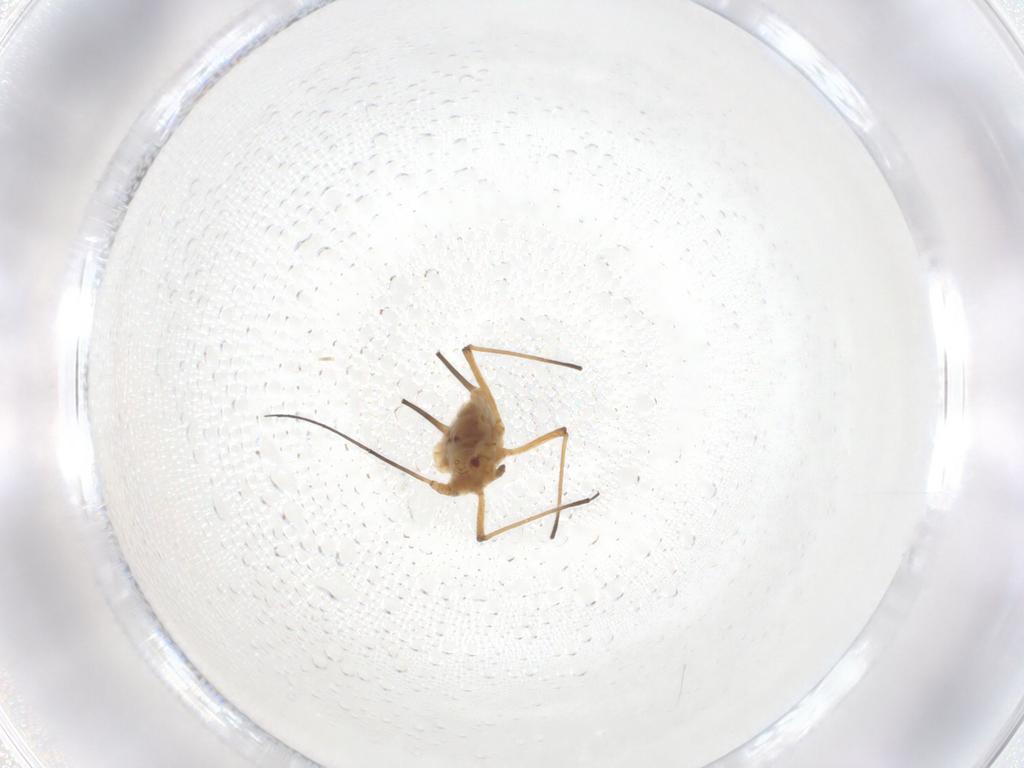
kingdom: Animalia
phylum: Arthropoda
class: Insecta
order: Hemiptera
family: Aphididae
